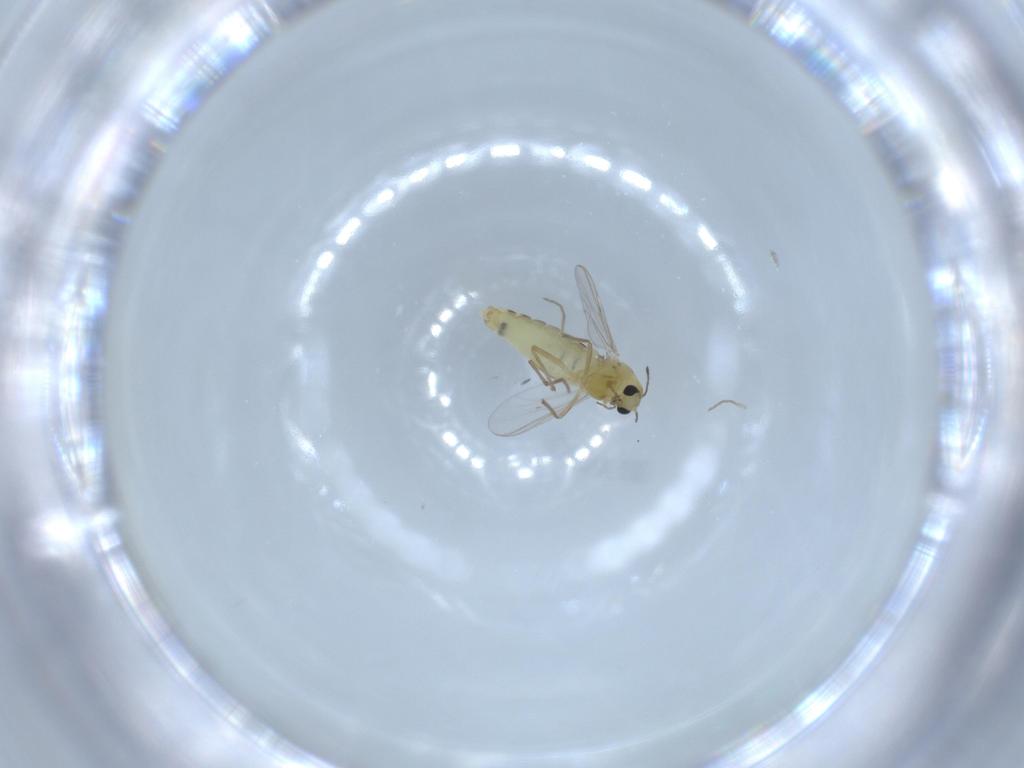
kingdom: Animalia
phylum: Arthropoda
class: Insecta
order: Diptera
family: Chironomidae
